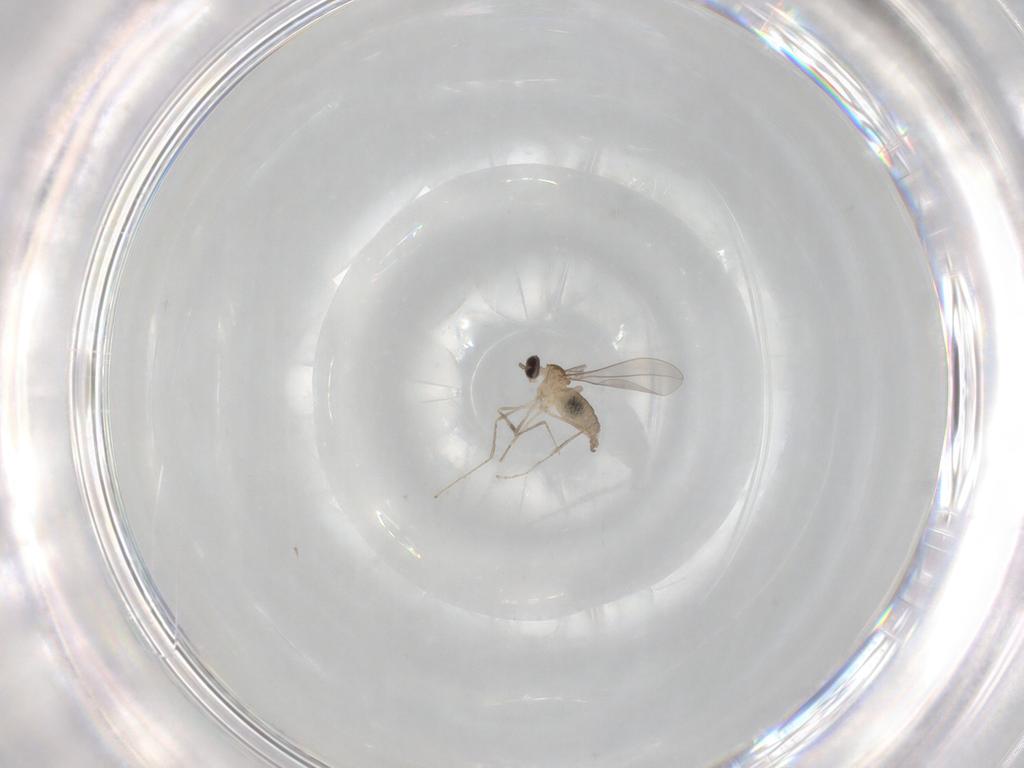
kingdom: Animalia
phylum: Arthropoda
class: Insecta
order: Diptera
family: Cecidomyiidae
